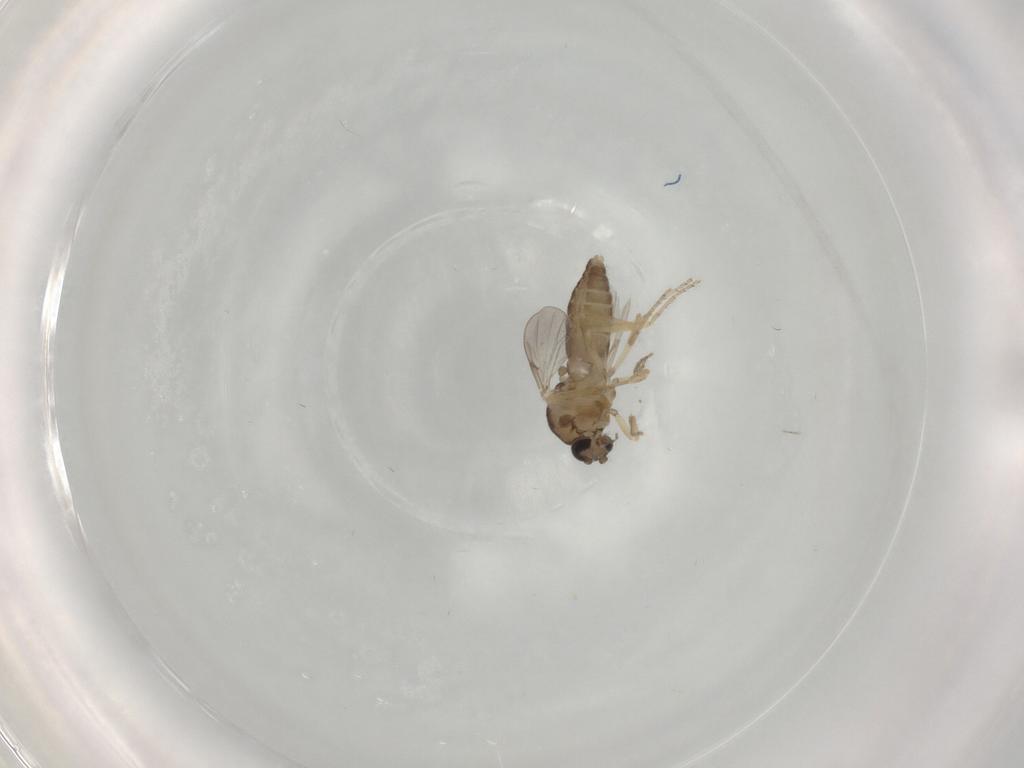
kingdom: Animalia
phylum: Arthropoda
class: Insecta
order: Diptera
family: Ceratopogonidae
